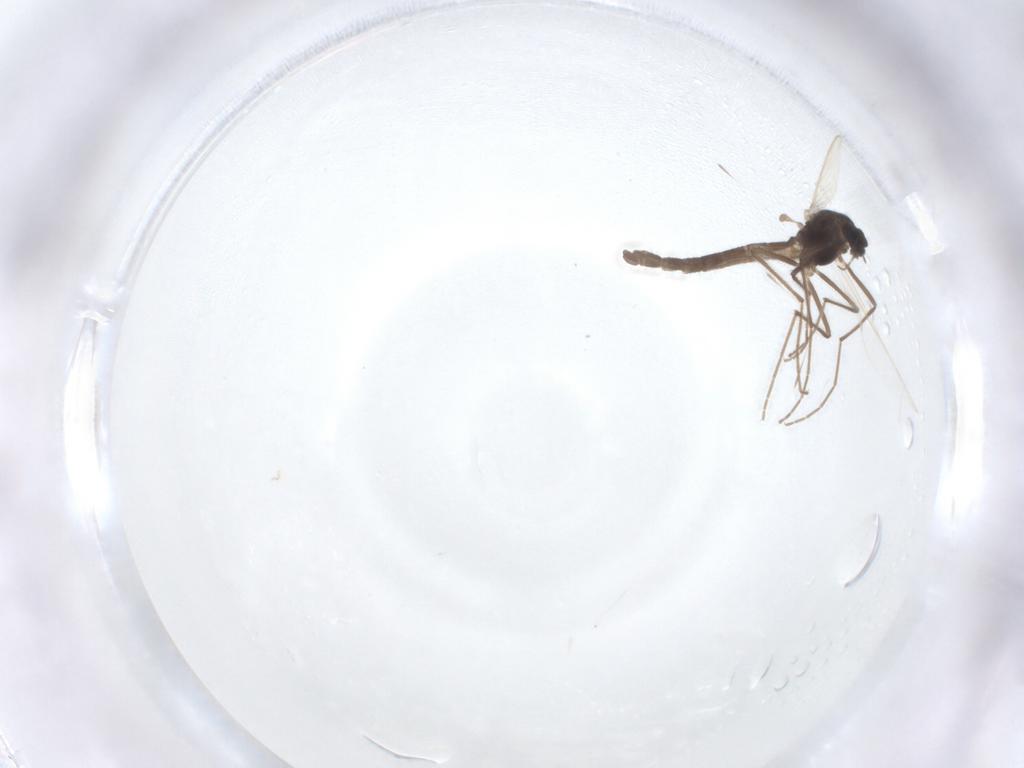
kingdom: Animalia
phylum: Arthropoda
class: Insecta
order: Diptera
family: Chironomidae
